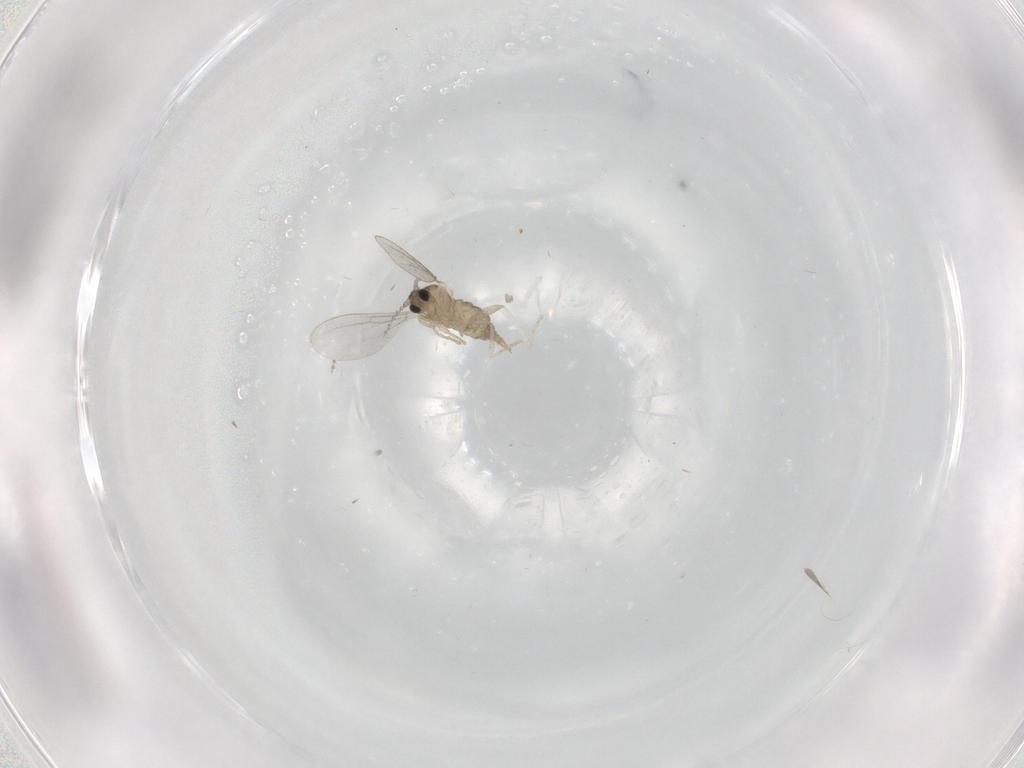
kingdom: Animalia
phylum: Arthropoda
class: Insecta
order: Diptera
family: Cecidomyiidae
